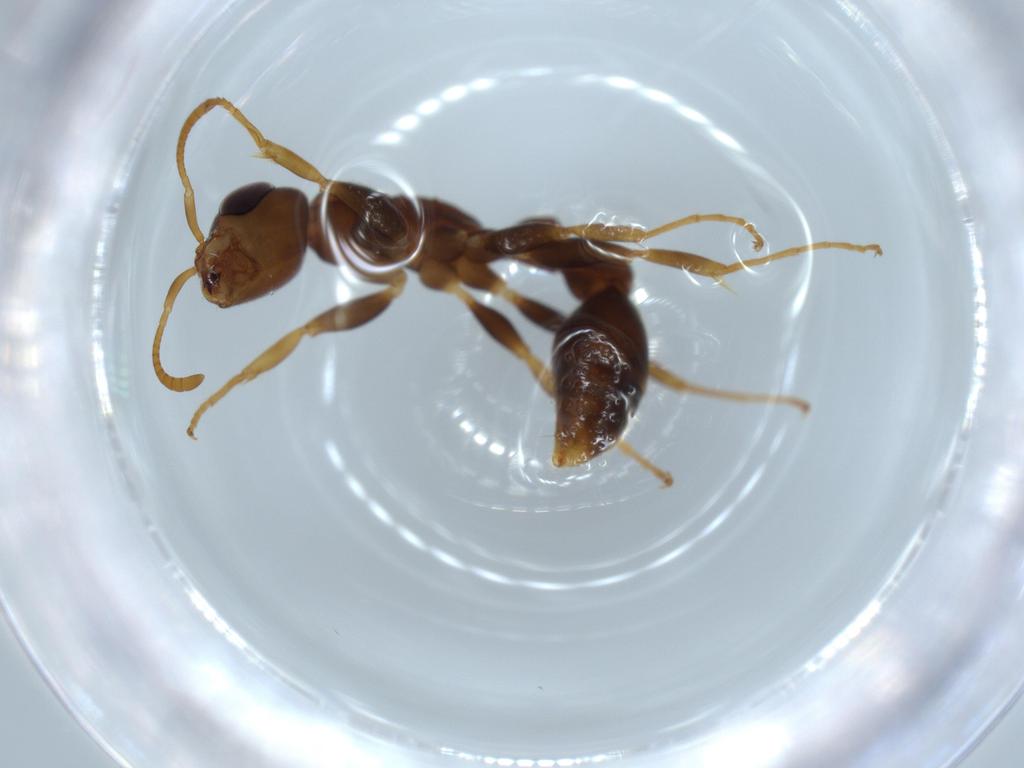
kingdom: Animalia
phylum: Arthropoda
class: Insecta
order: Hymenoptera
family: Formicidae
